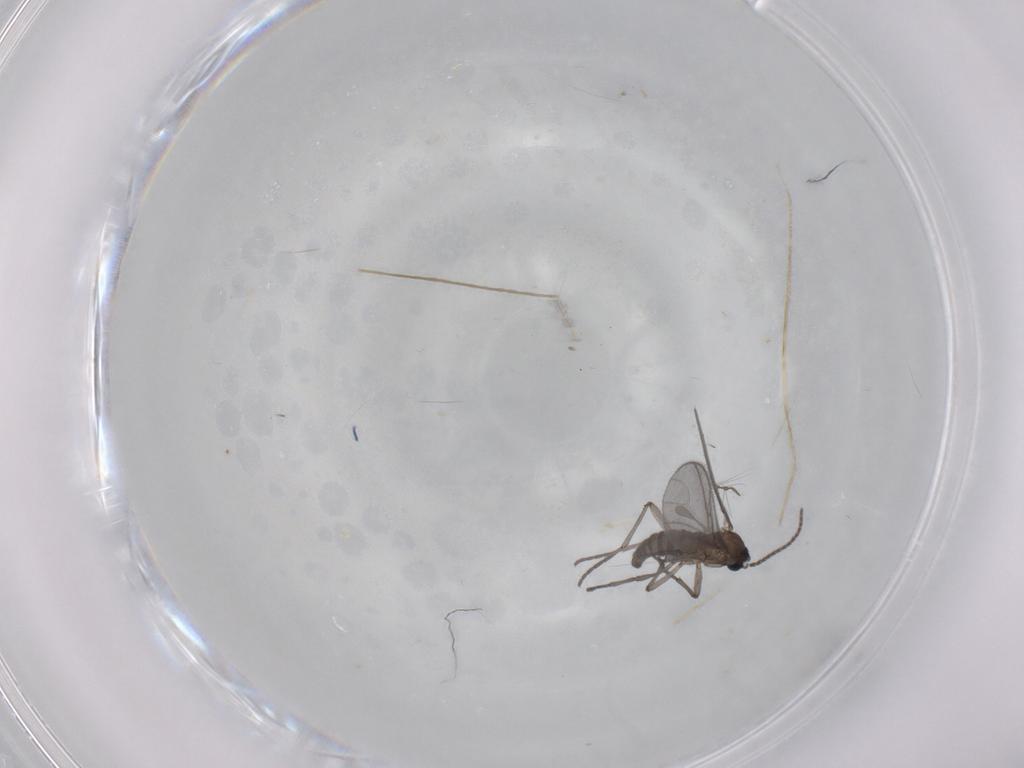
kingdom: Animalia
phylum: Arthropoda
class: Insecta
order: Diptera
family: Sciaridae
